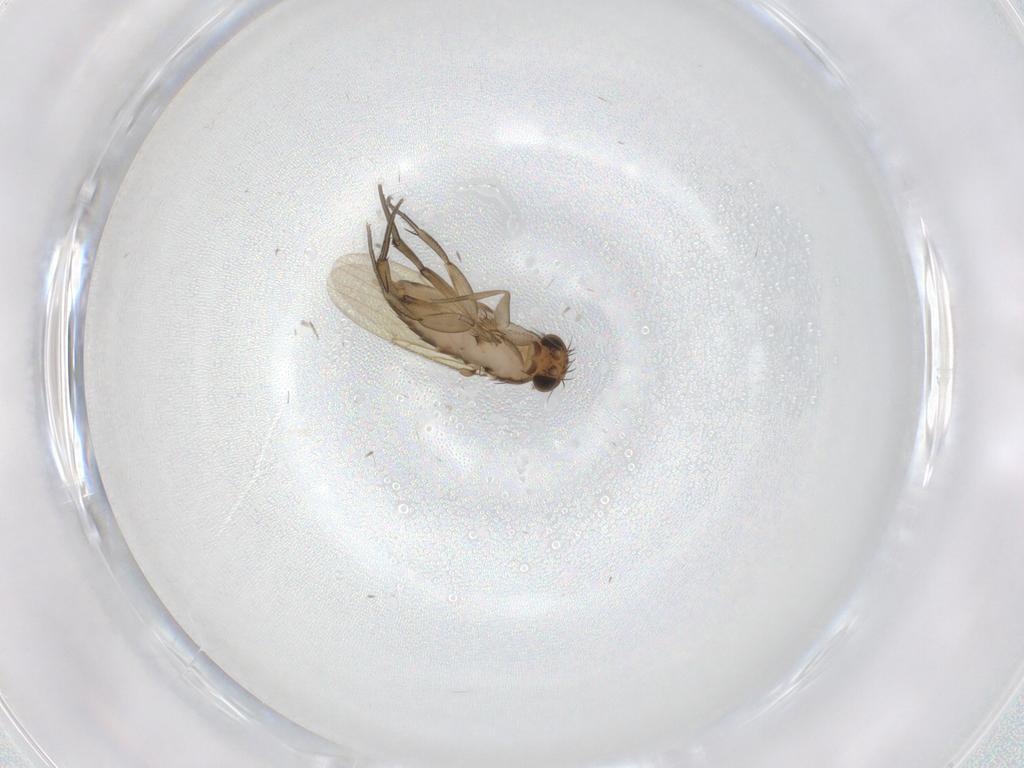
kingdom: Animalia
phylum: Arthropoda
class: Insecta
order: Diptera
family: Phoridae
